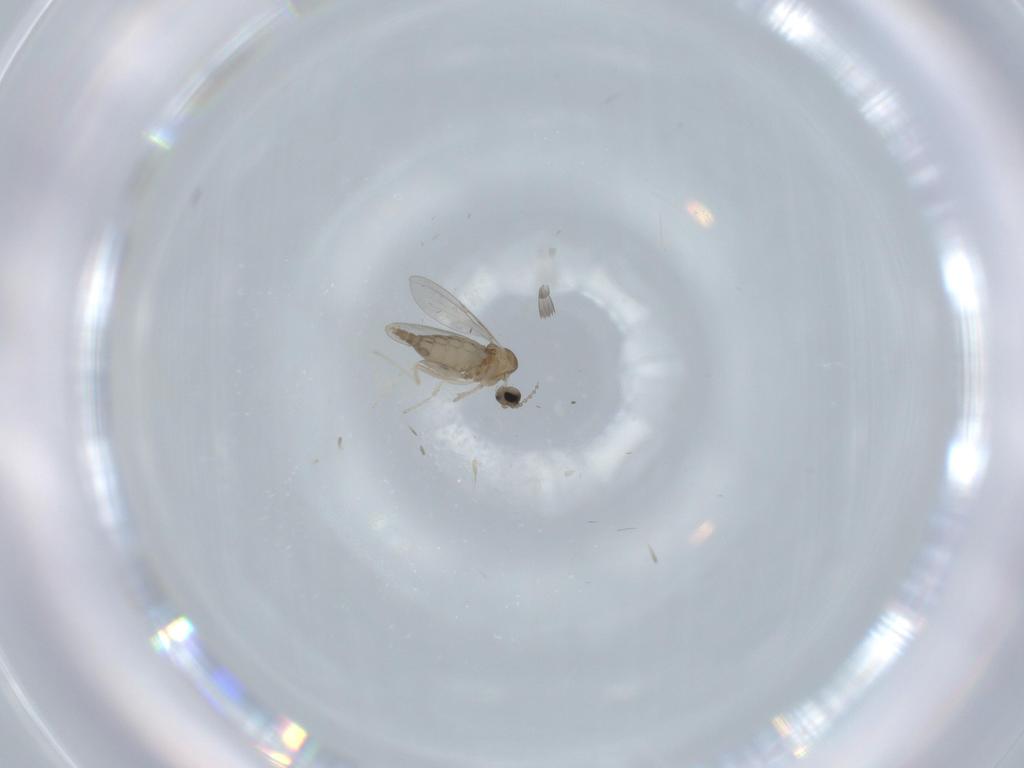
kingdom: Animalia
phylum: Arthropoda
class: Insecta
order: Diptera
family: Cecidomyiidae
